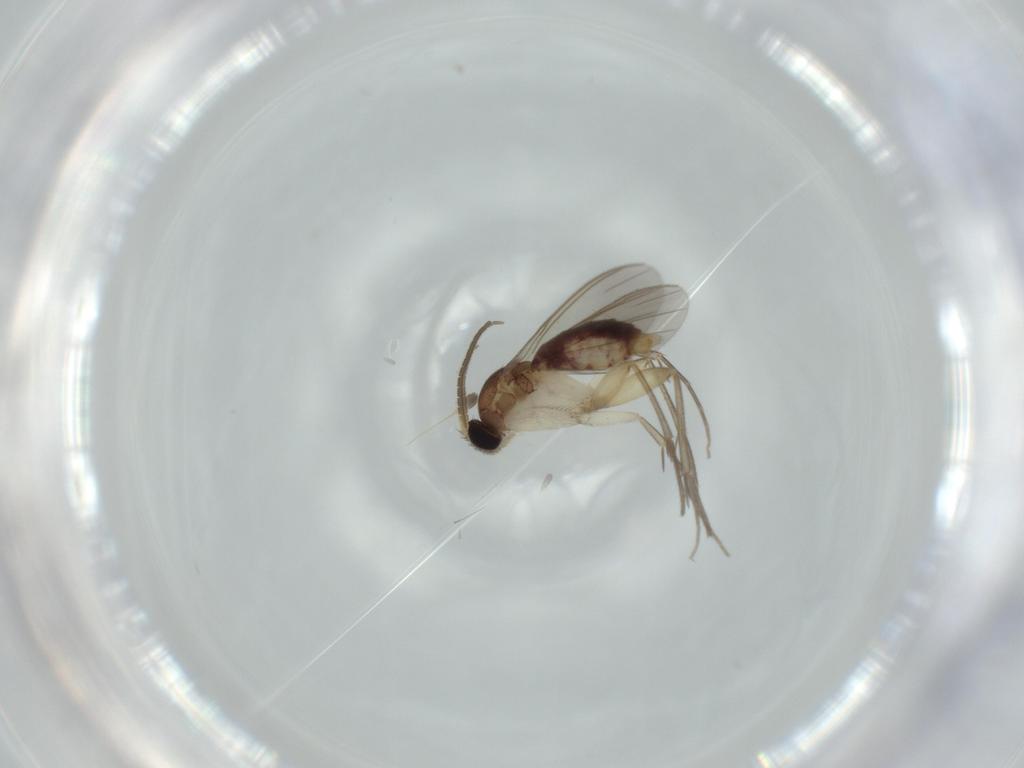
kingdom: Animalia
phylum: Arthropoda
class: Insecta
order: Diptera
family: Mycetophilidae
